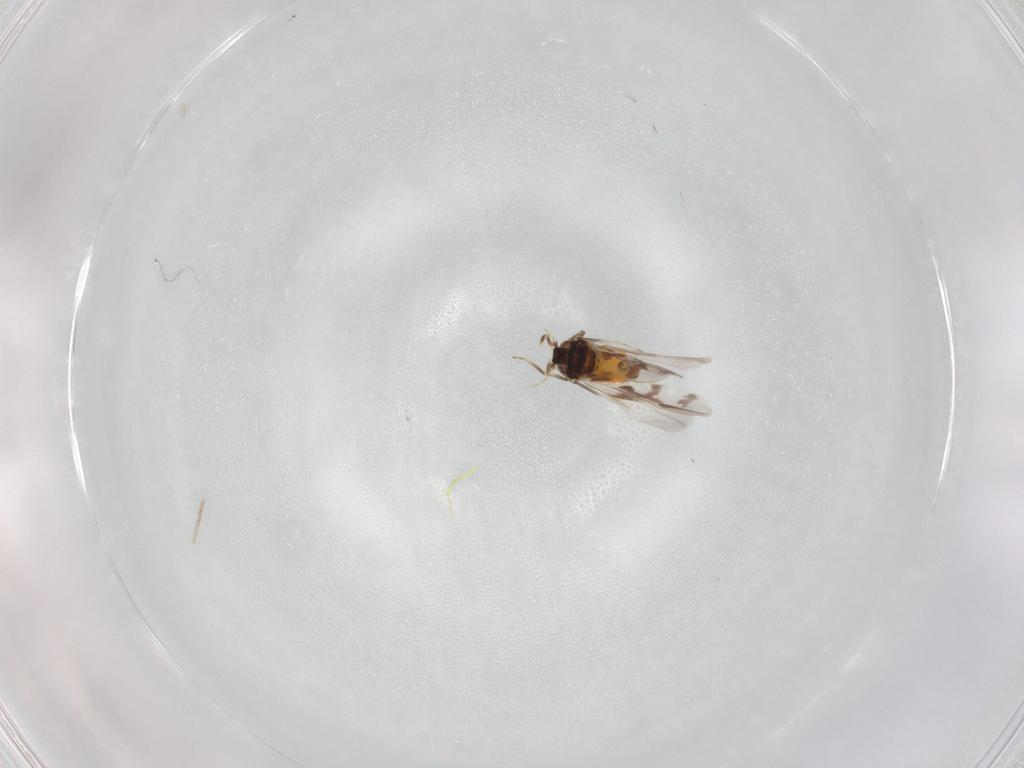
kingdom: Animalia
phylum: Arthropoda
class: Insecta
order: Hemiptera
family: Aleyrodidae
